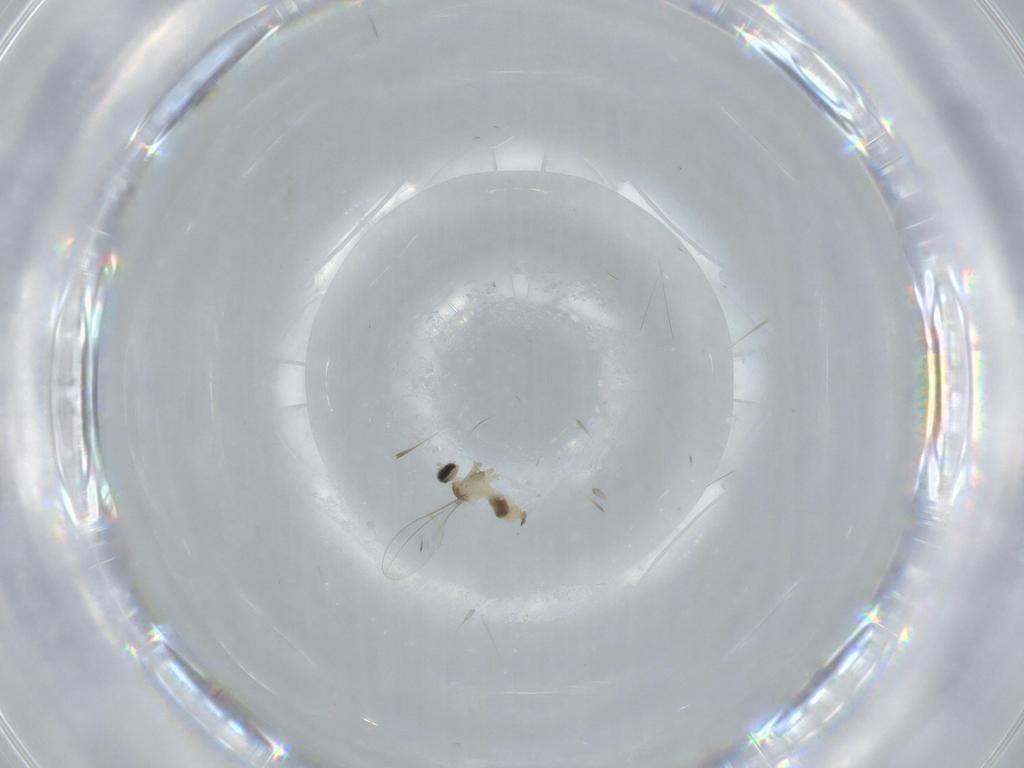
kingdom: Animalia
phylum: Arthropoda
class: Insecta
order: Diptera
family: Cecidomyiidae
